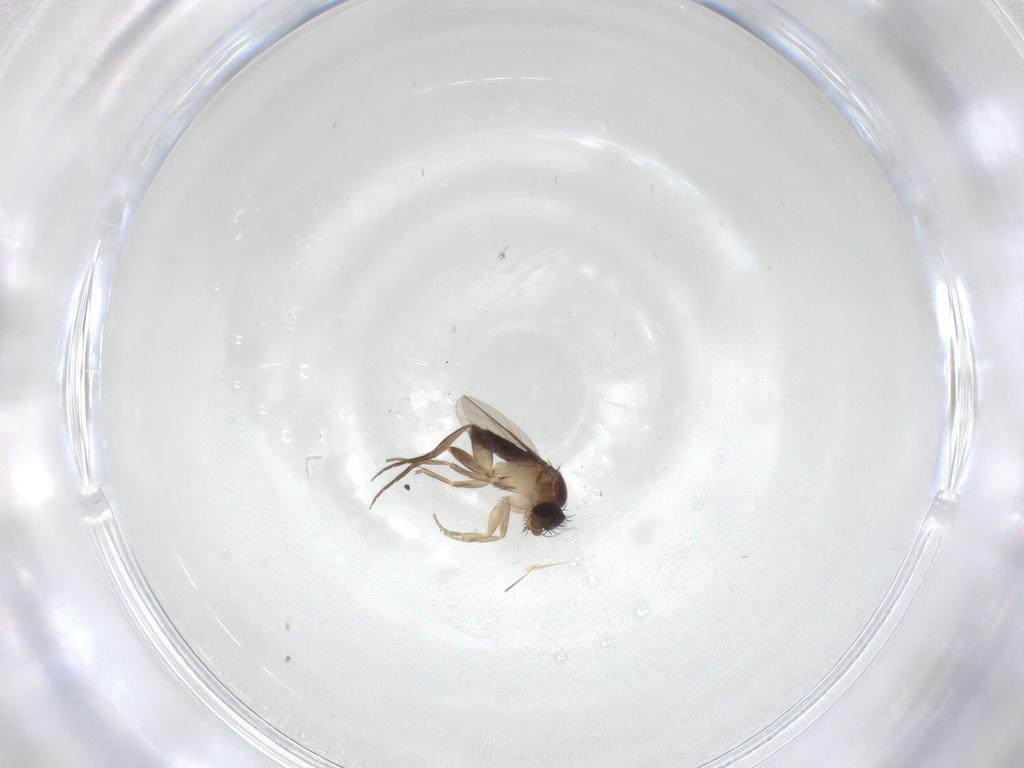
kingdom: Animalia
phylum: Arthropoda
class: Insecta
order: Diptera
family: Phoridae
